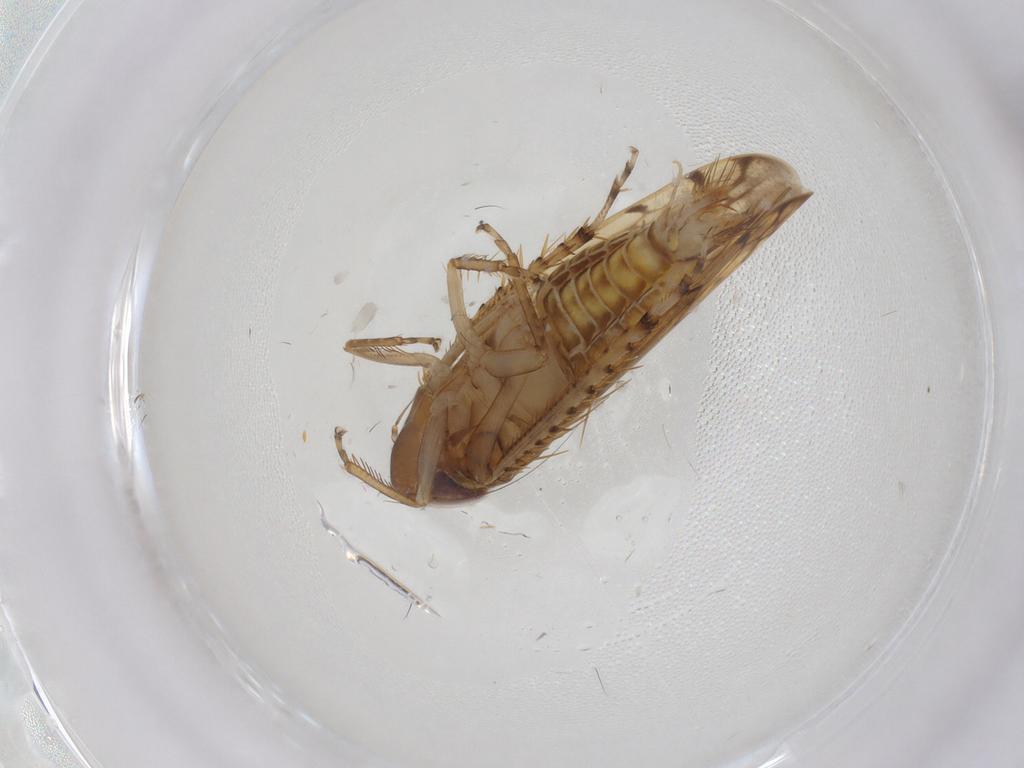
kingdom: Animalia
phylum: Arthropoda
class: Insecta
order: Hemiptera
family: Cicadellidae
